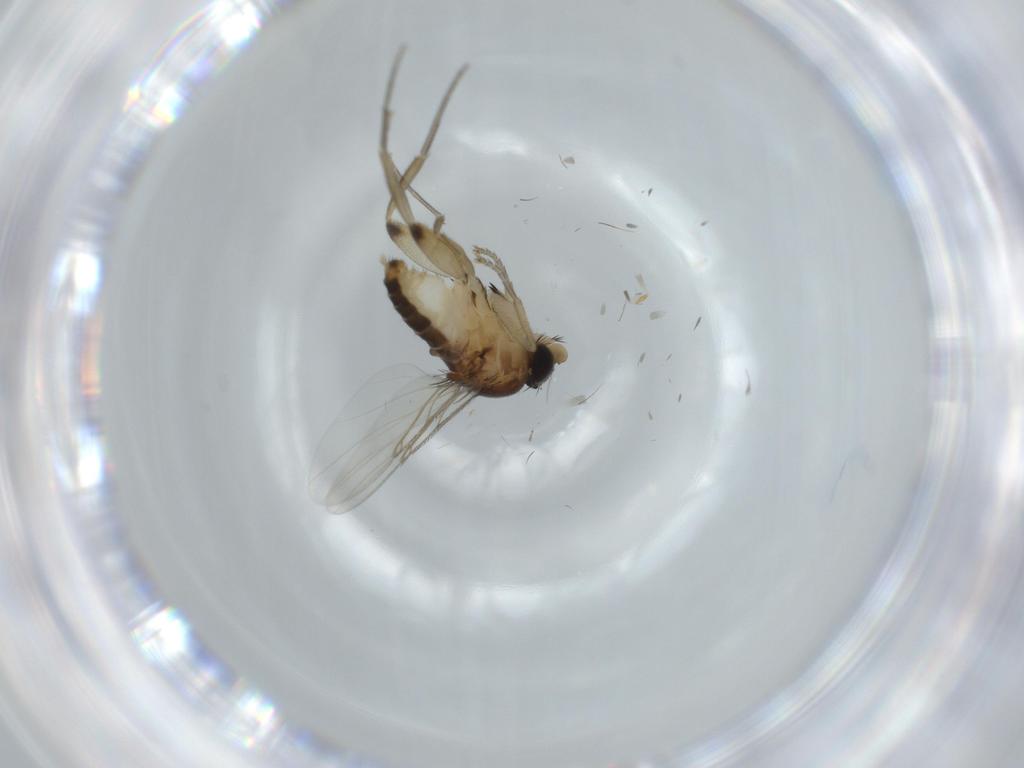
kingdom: Animalia
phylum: Arthropoda
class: Insecta
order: Diptera
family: Phoridae
